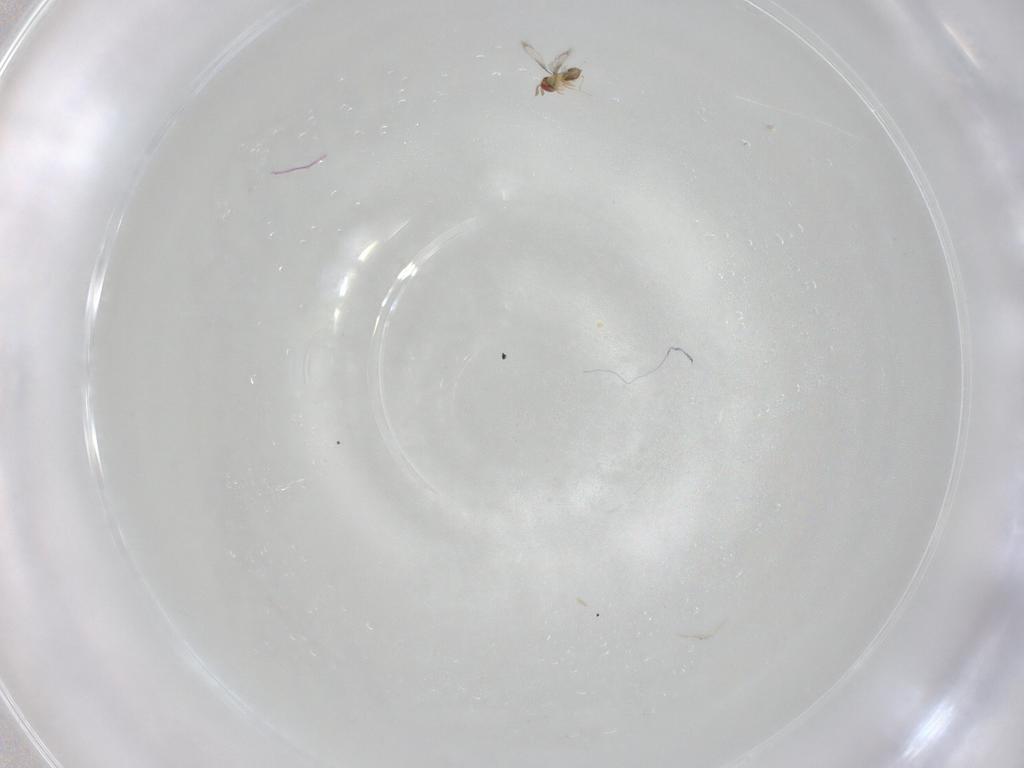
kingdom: Animalia
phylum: Arthropoda
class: Insecta
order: Hymenoptera
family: Trichogrammatidae
